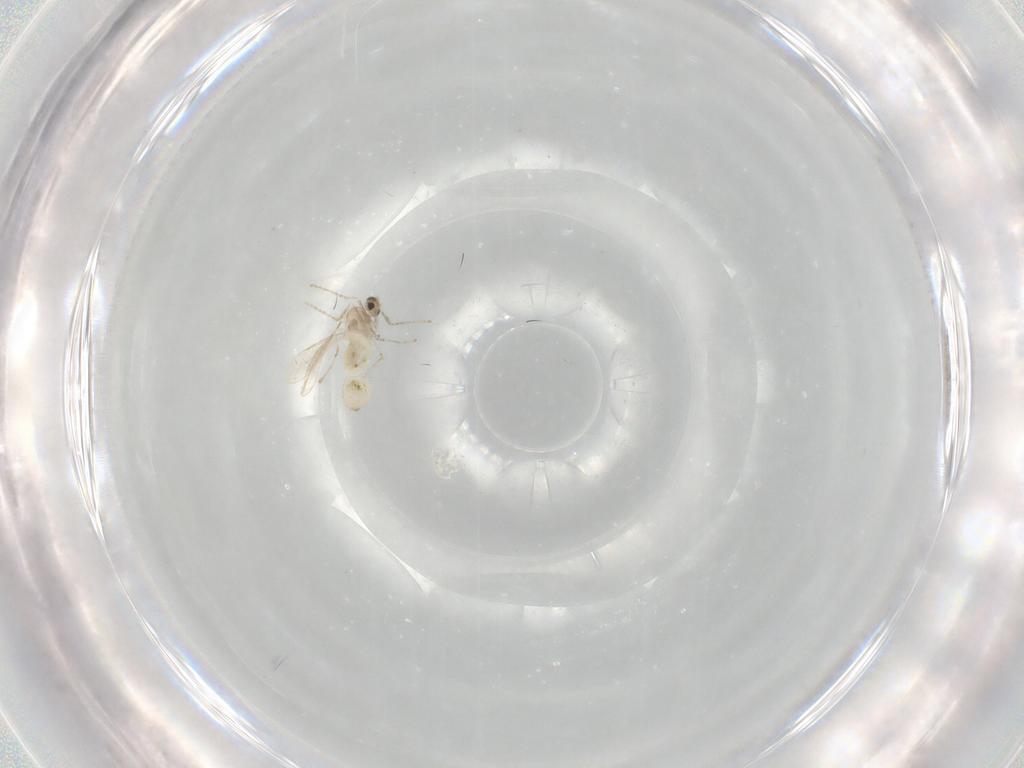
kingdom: Animalia
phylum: Arthropoda
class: Insecta
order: Diptera
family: Cecidomyiidae
